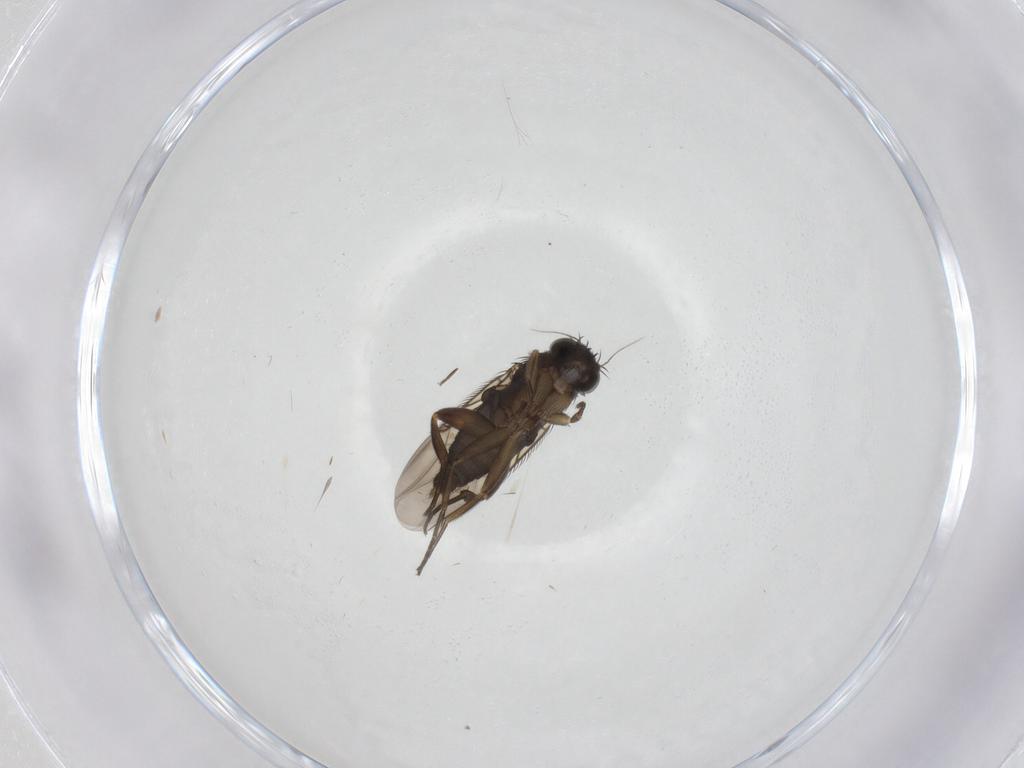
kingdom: Animalia
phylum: Arthropoda
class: Insecta
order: Diptera
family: Phoridae
